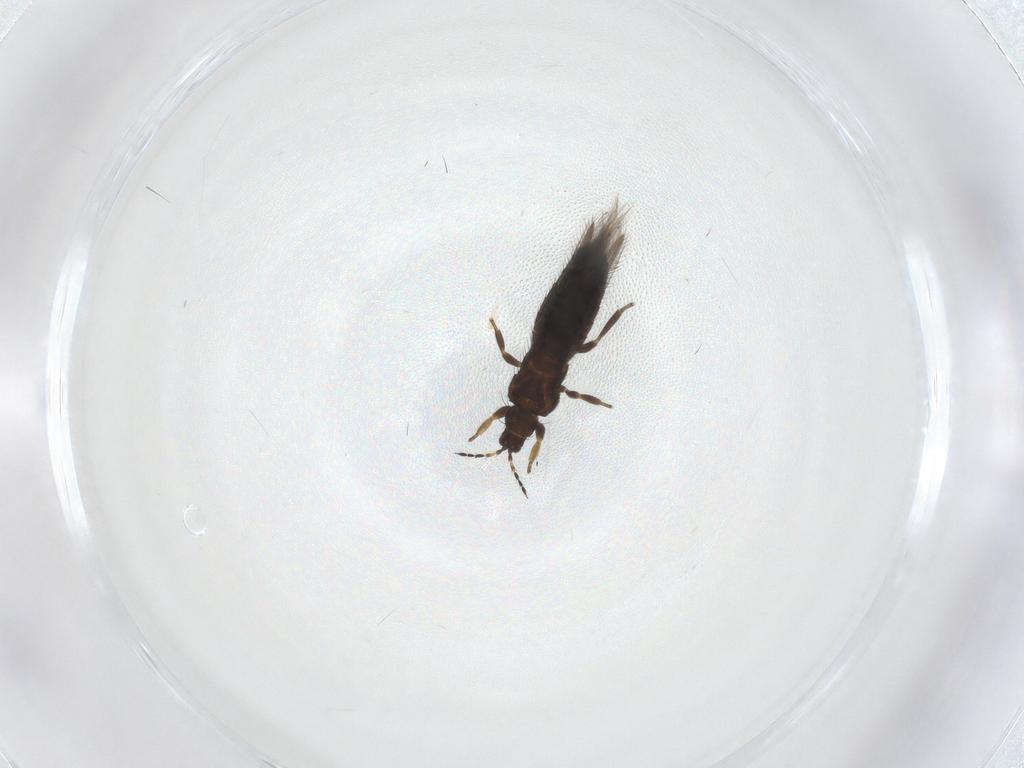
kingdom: Animalia
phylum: Arthropoda
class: Insecta
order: Thysanoptera
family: Thripidae
